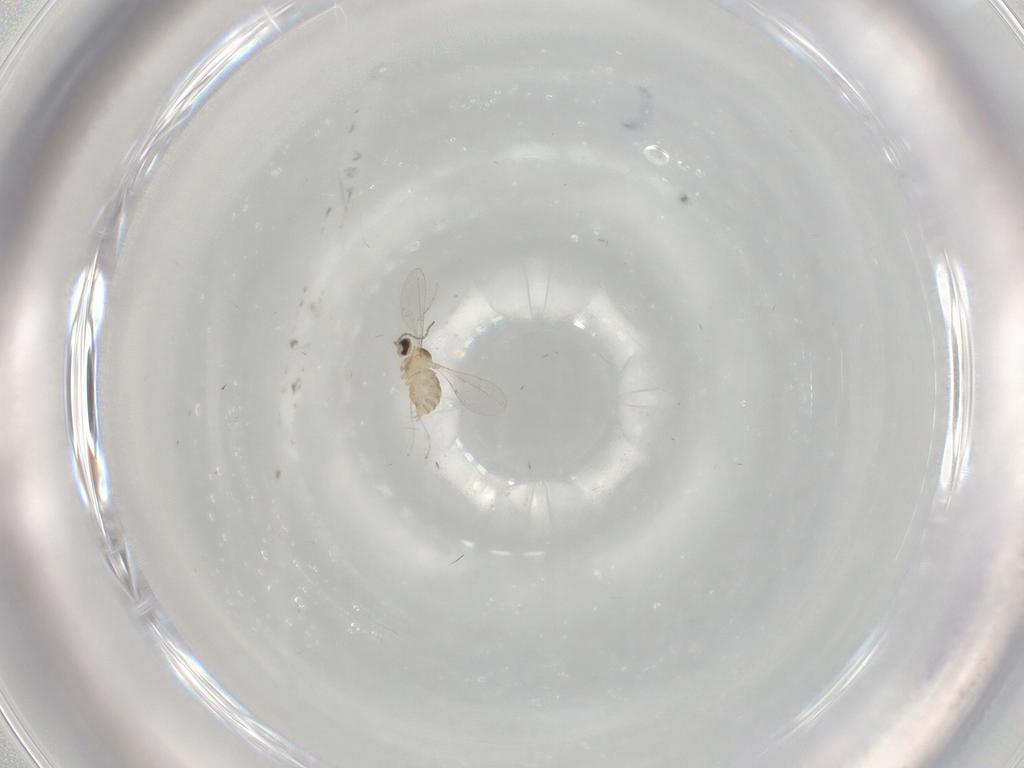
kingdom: Animalia
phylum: Arthropoda
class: Insecta
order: Diptera
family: Cecidomyiidae
